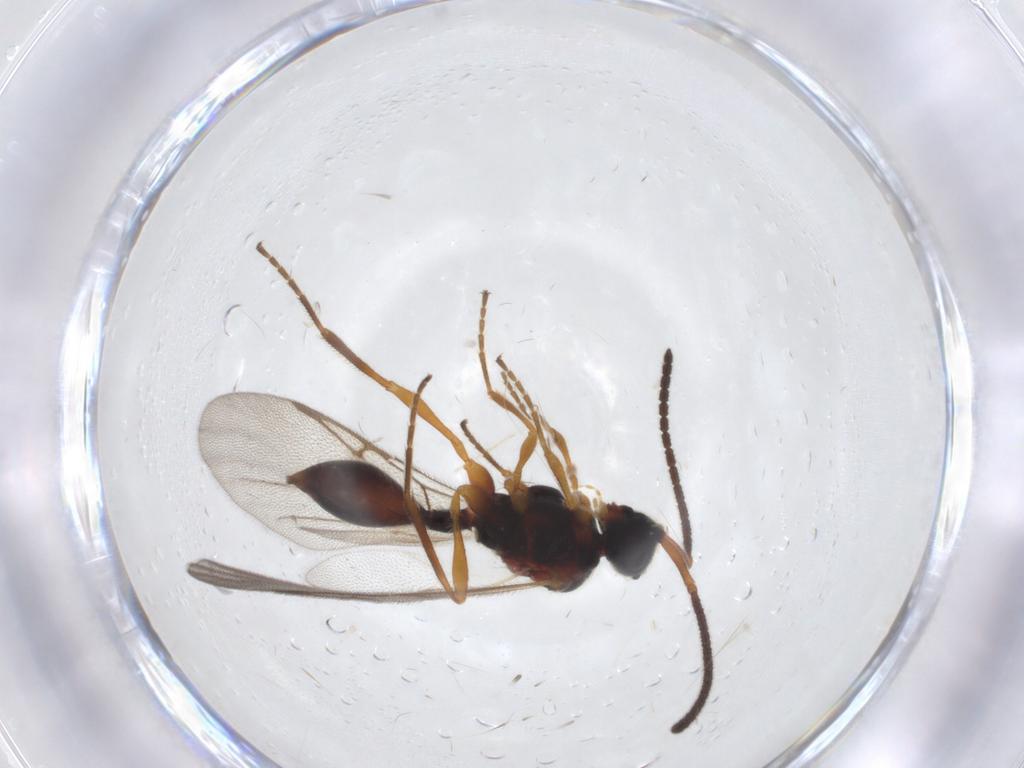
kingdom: Animalia
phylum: Arthropoda
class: Insecta
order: Hymenoptera
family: Diapriidae
